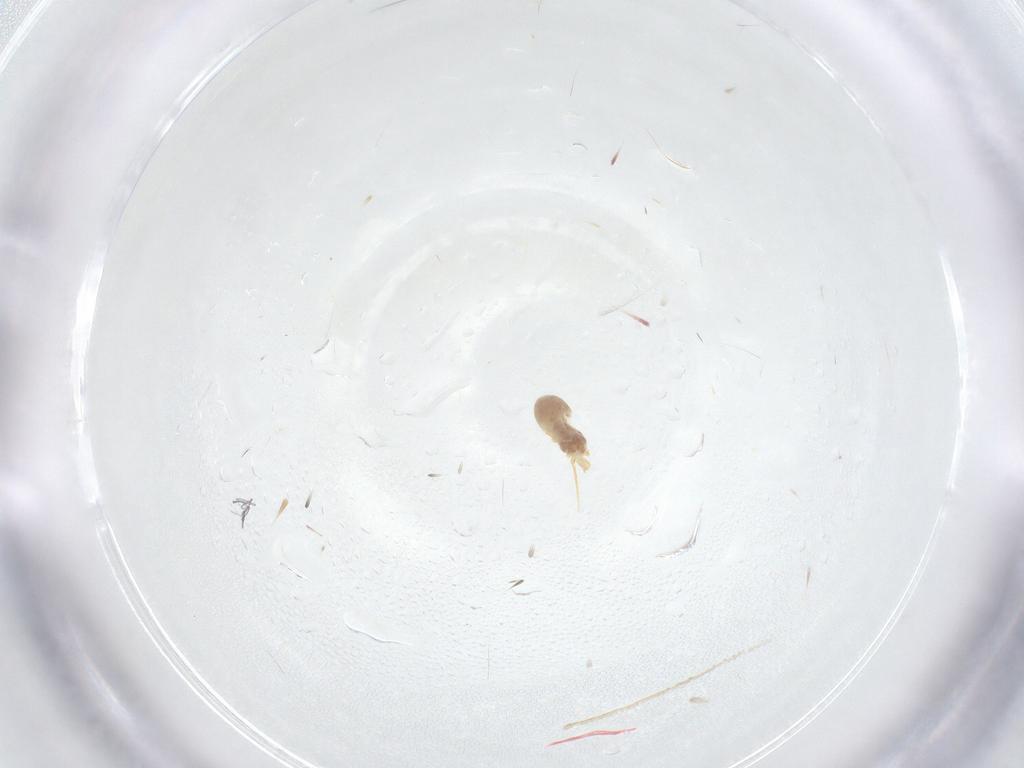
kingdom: Animalia
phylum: Arthropoda
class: Arachnida
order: Trombidiformes
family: Eupodidae
